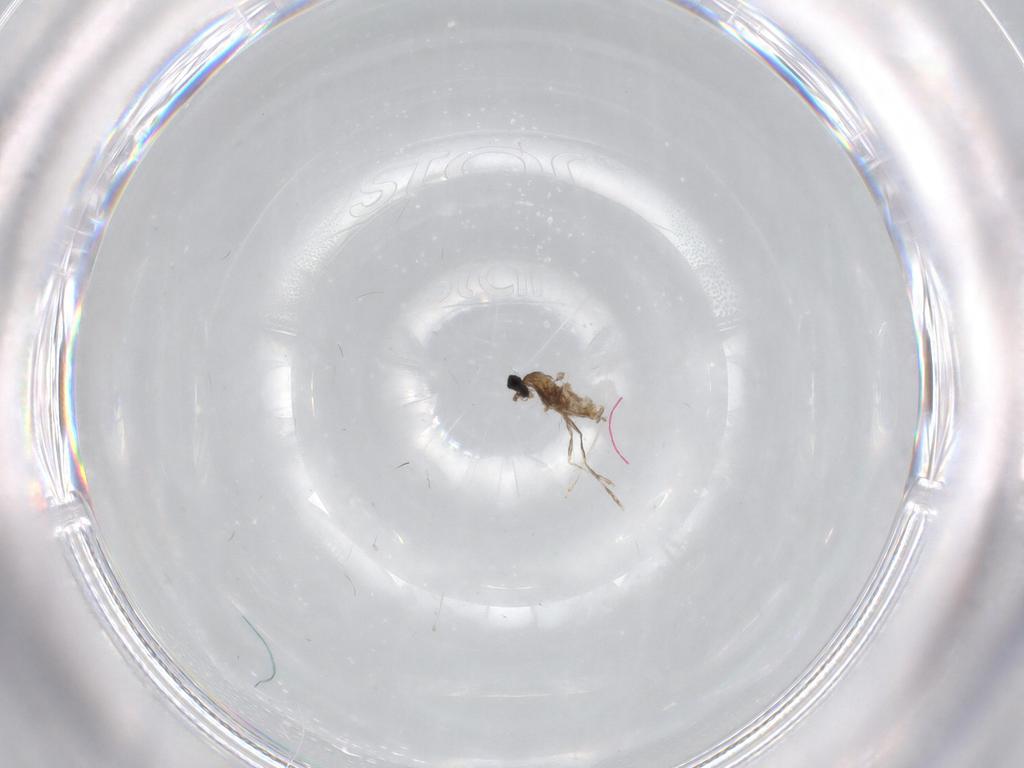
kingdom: Animalia
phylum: Arthropoda
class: Insecta
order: Diptera
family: Cecidomyiidae
